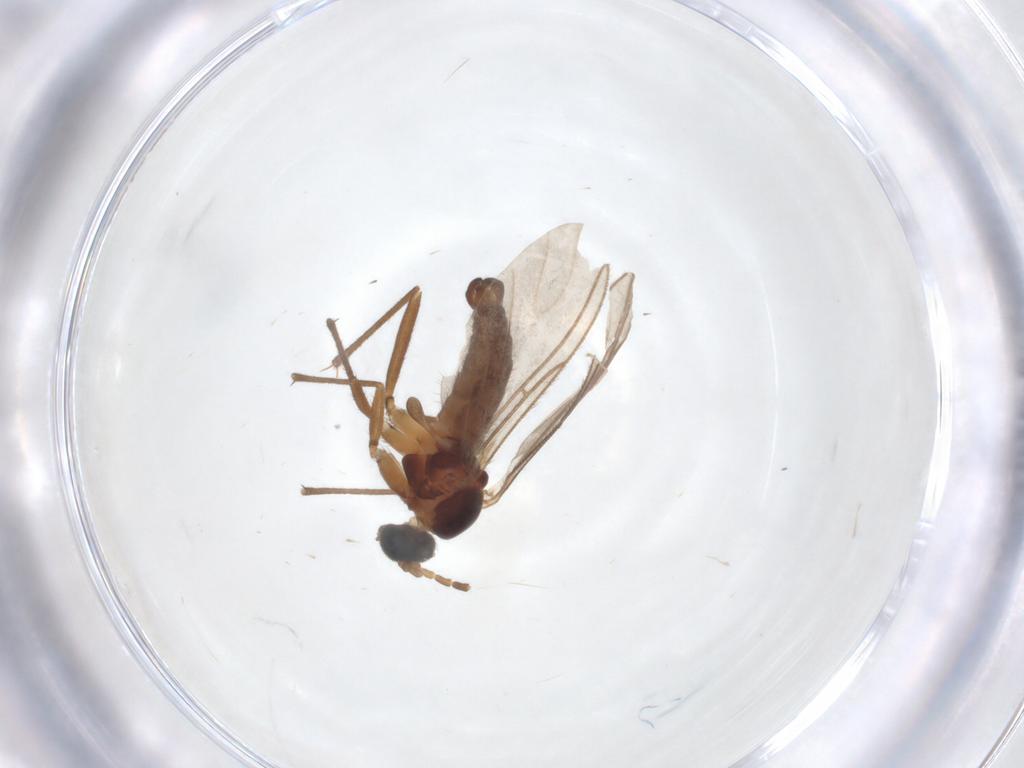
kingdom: Animalia
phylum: Arthropoda
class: Insecta
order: Diptera
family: Sciaridae
